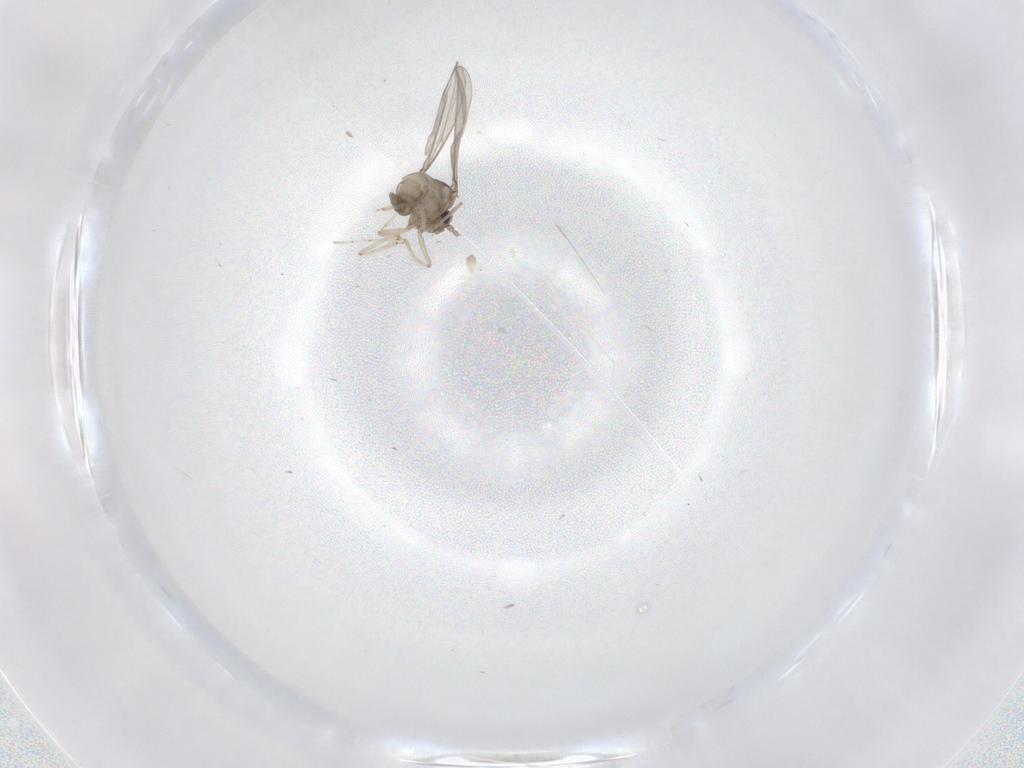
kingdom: Animalia
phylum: Arthropoda
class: Insecta
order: Diptera
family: Cecidomyiidae
